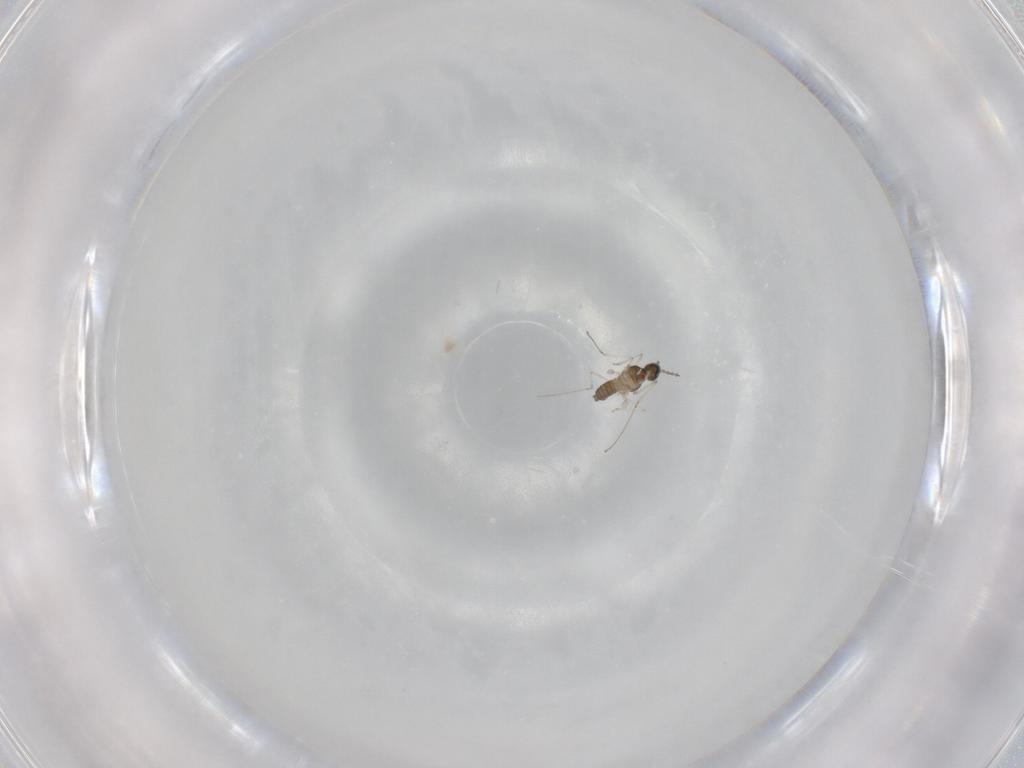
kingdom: Animalia
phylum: Arthropoda
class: Insecta
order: Diptera
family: Cecidomyiidae
